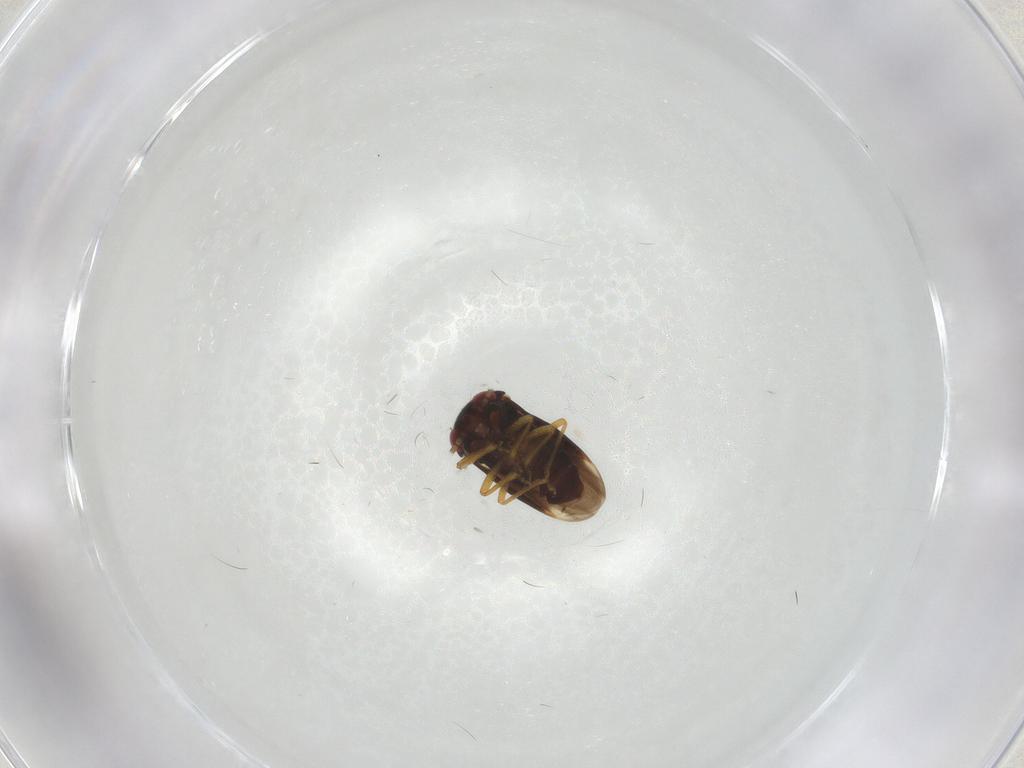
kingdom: Animalia
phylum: Arthropoda
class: Insecta
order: Hemiptera
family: Schizopteridae
